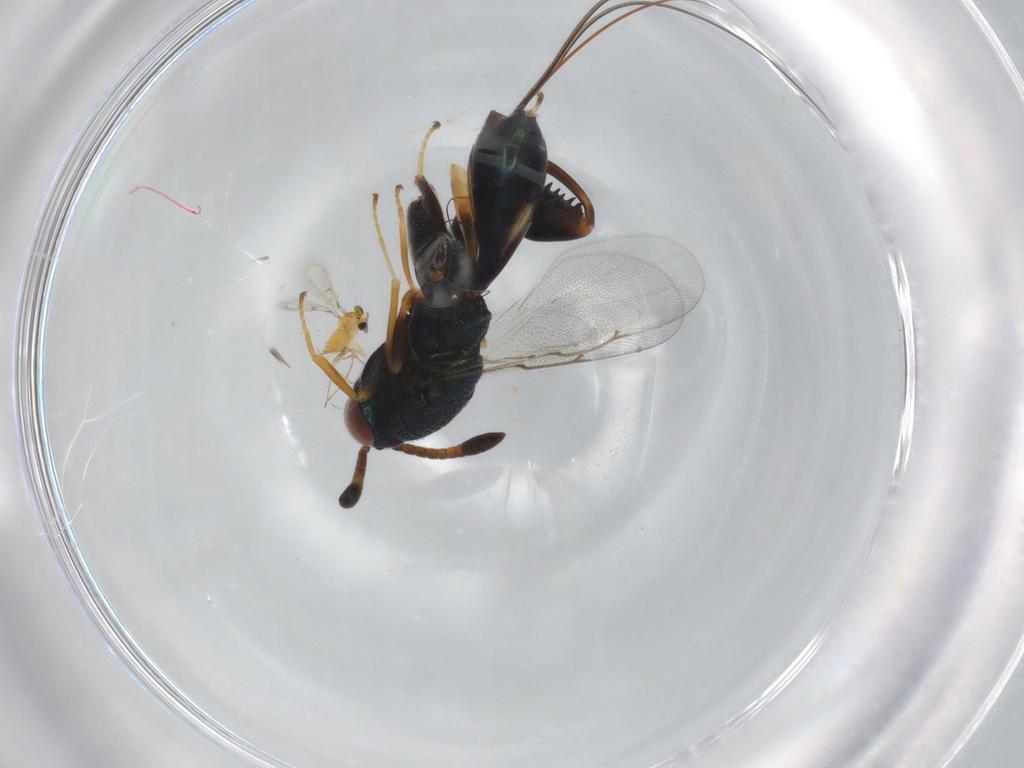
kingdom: Animalia
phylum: Arthropoda
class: Insecta
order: Hymenoptera
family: Torymidae
